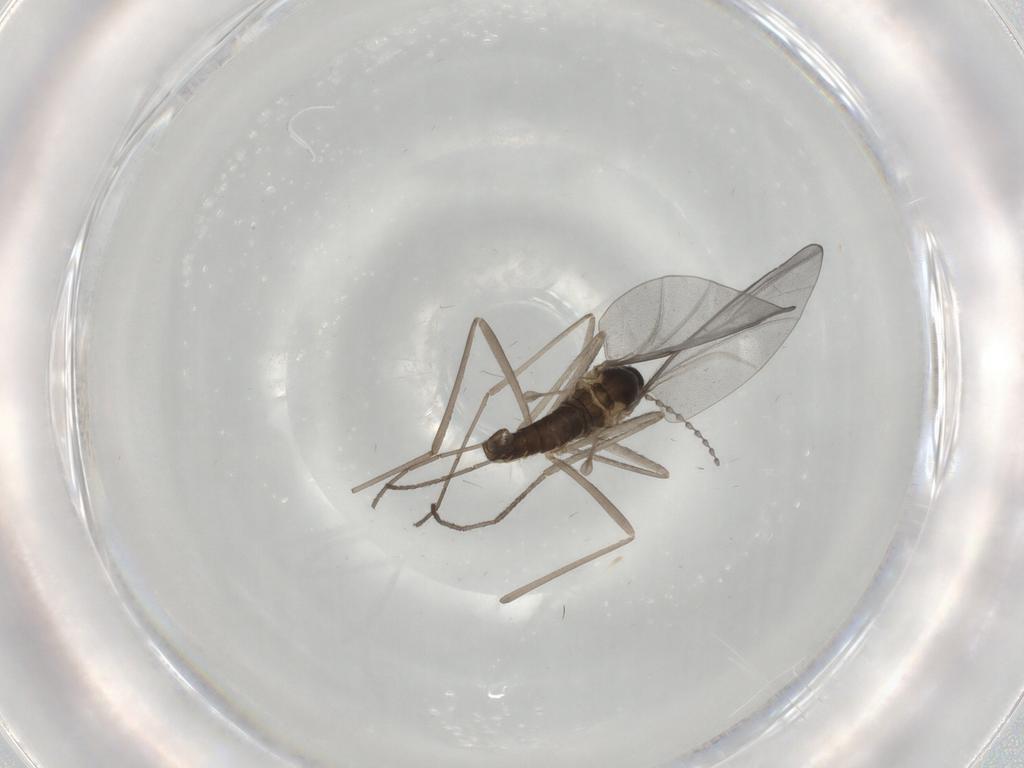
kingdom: Animalia
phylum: Arthropoda
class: Insecta
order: Diptera
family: Cecidomyiidae
